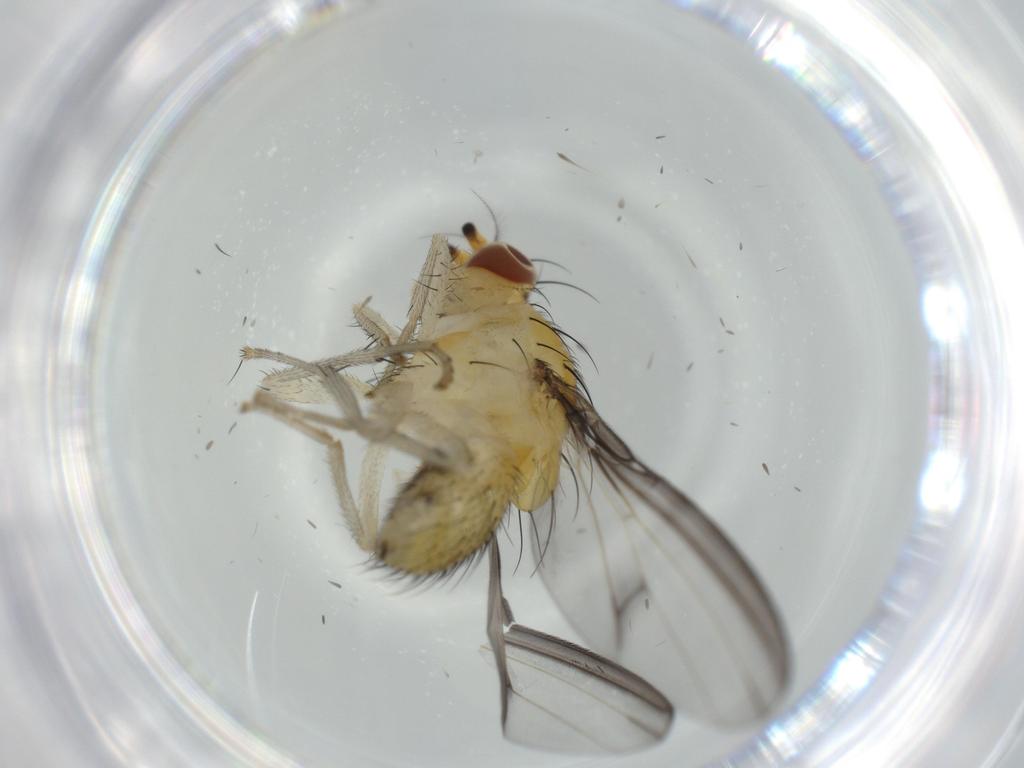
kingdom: Animalia
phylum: Arthropoda
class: Insecta
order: Diptera
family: Lauxaniidae
